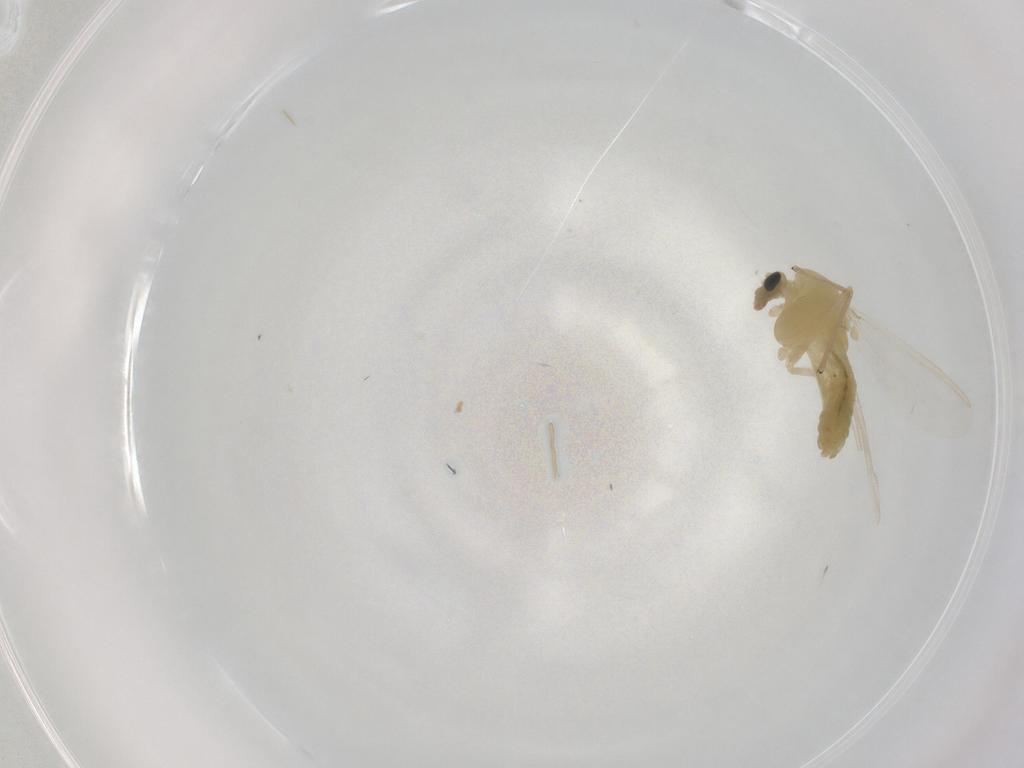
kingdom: Animalia
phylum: Arthropoda
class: Insecta
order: Diptera
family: Chironomidae
